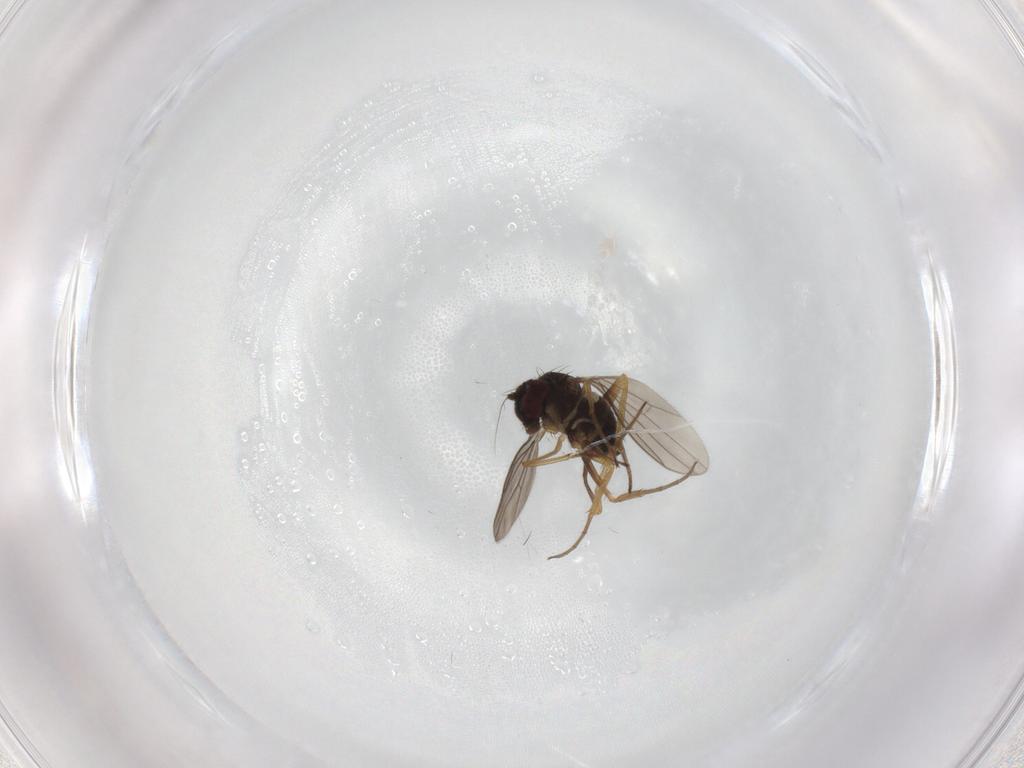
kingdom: Animalia
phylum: Arthropoda
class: Insecta
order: Diptera
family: Dolichopodidae
